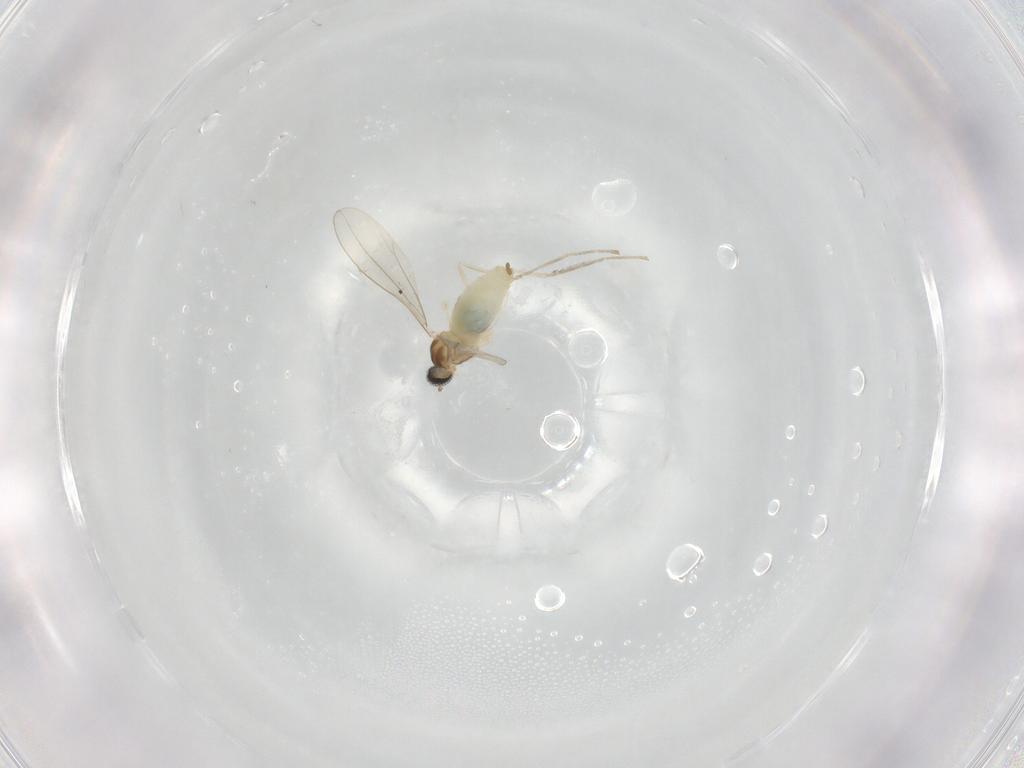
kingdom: Animalia
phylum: Arthropoda
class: Insecta
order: Diptera
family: Cecidomyiidae
